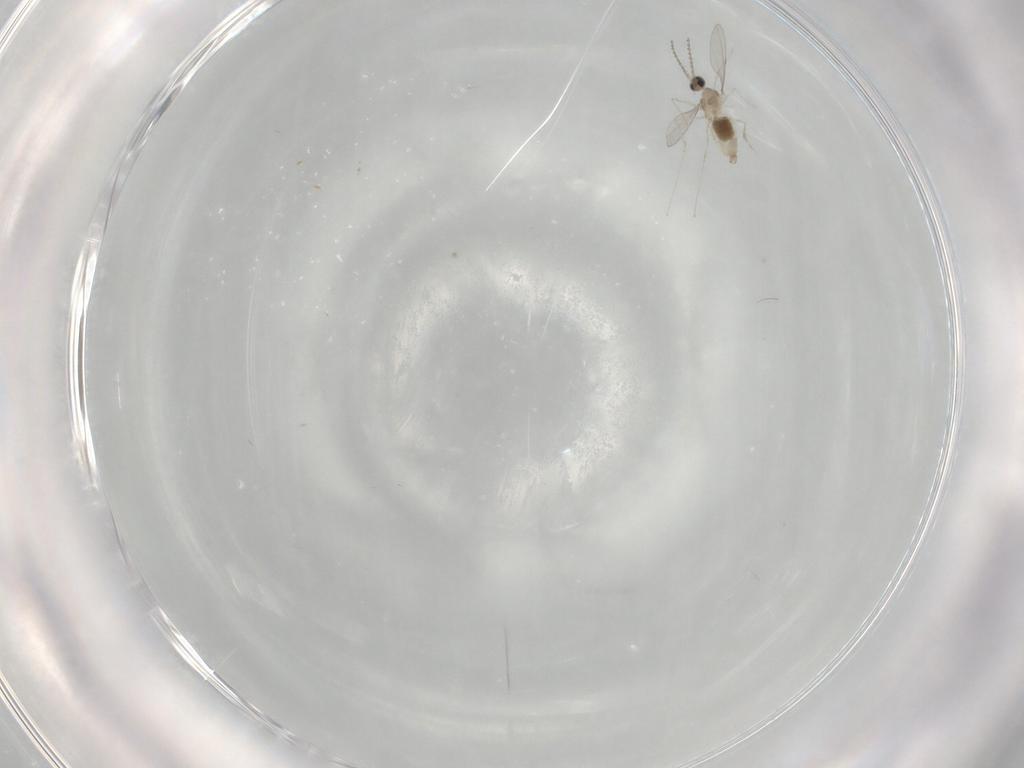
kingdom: Animalia
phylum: Arthropoda
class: Insecta
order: Diptera
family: Cecidomyiidae
